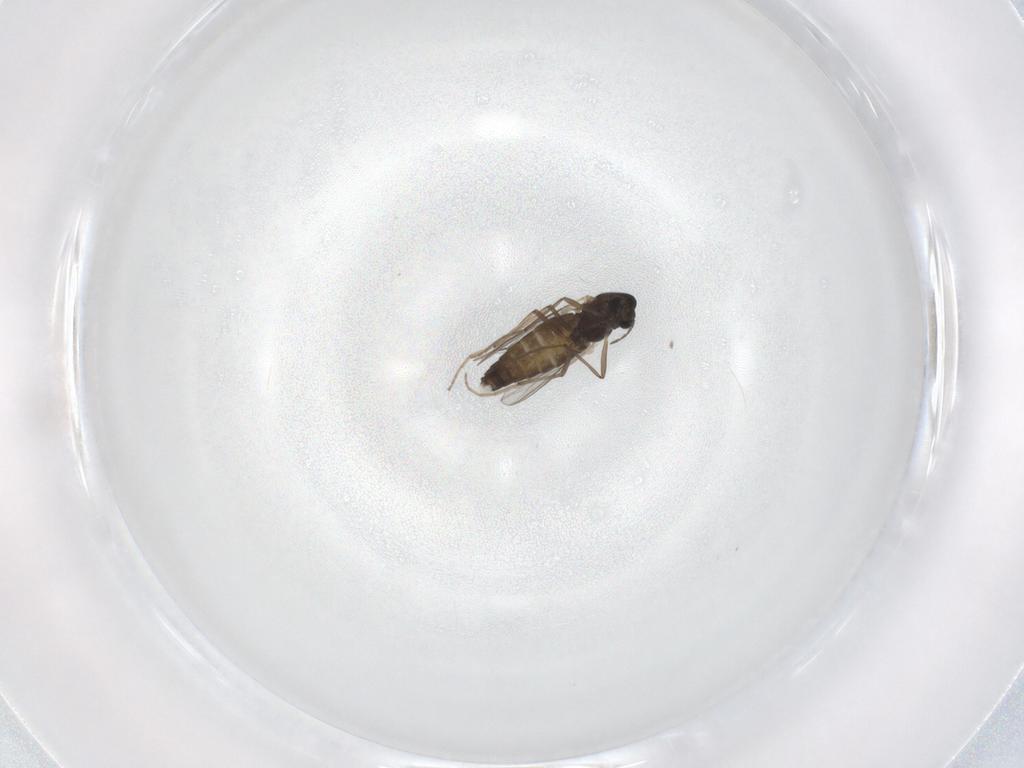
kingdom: Animalia
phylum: Arthropoda
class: Insecta
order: Diptera
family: Chironomidae
